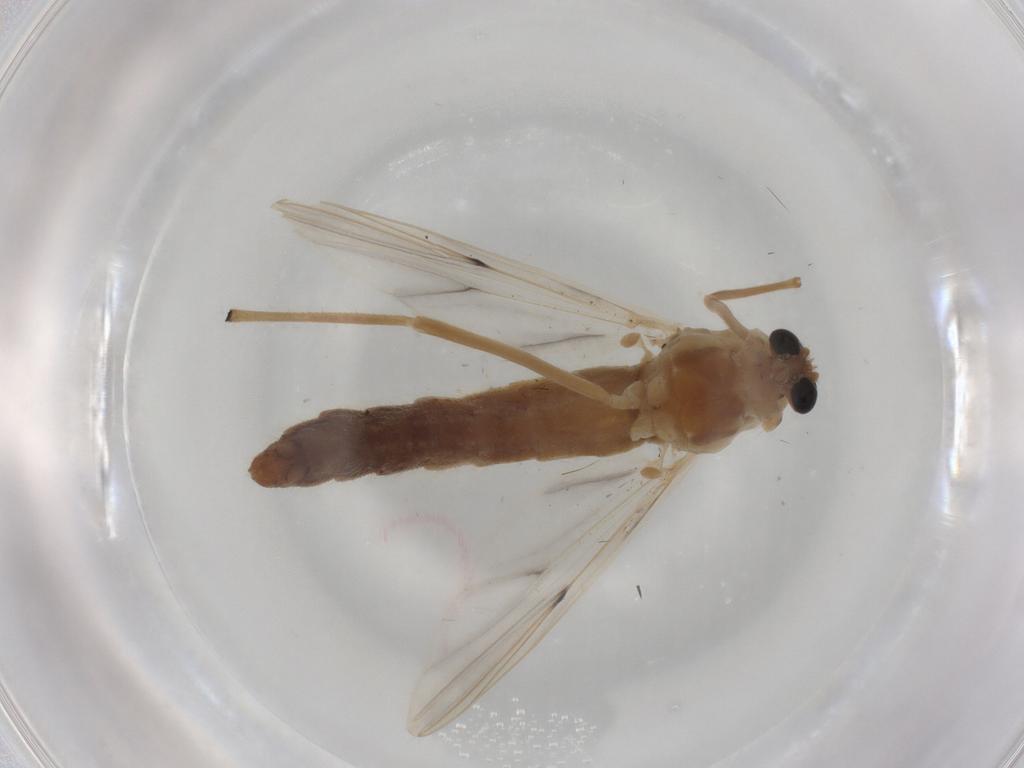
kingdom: Animalia
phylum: Arthropoda
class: Insecta
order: Diptera
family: Chironomidae
